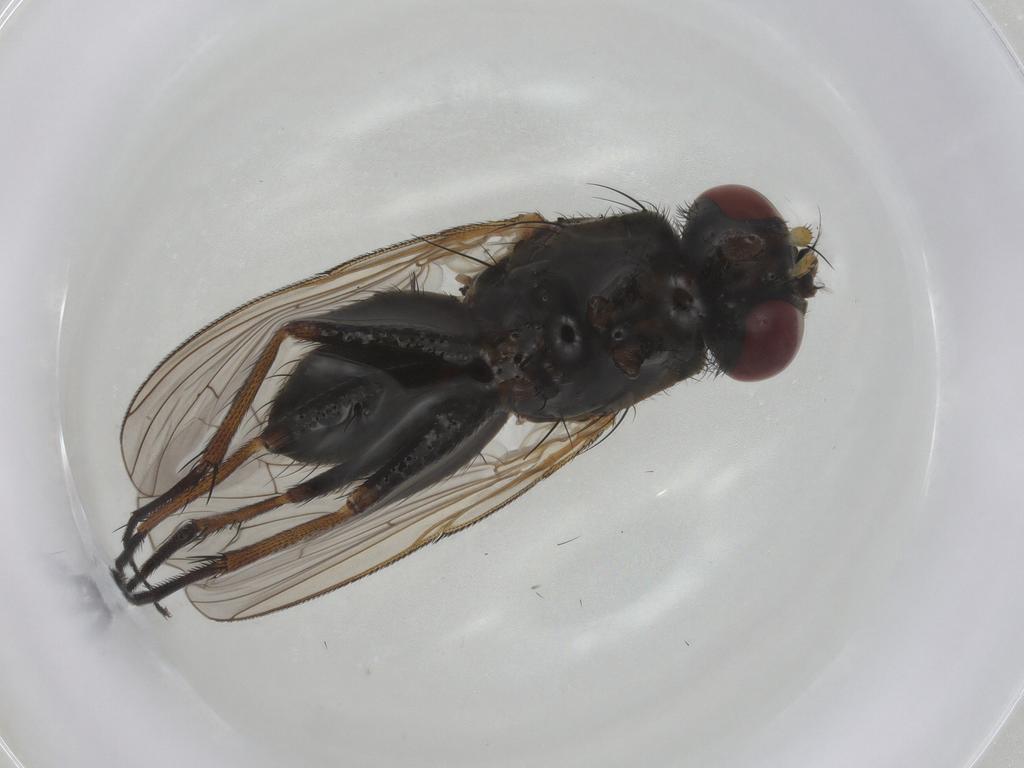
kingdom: Animalia
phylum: Arthropoda
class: Insecta
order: Diptera
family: Muscidae
